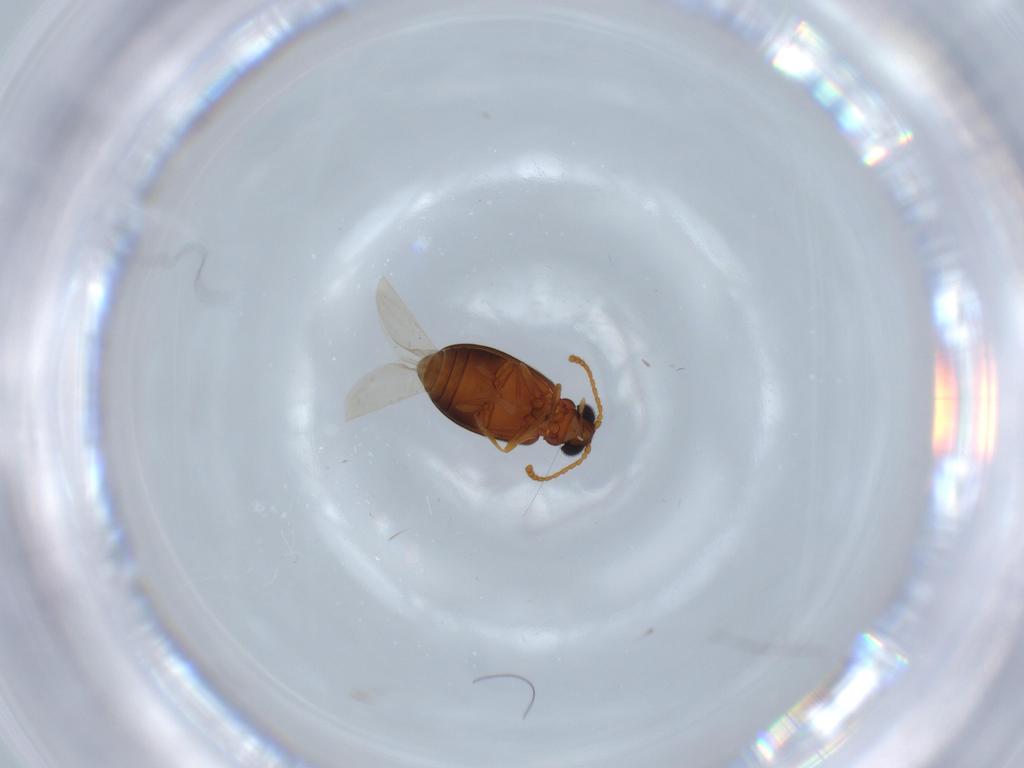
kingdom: Animalia
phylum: Arthropoda
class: Insecta
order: Coleoptera
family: Aderidae
